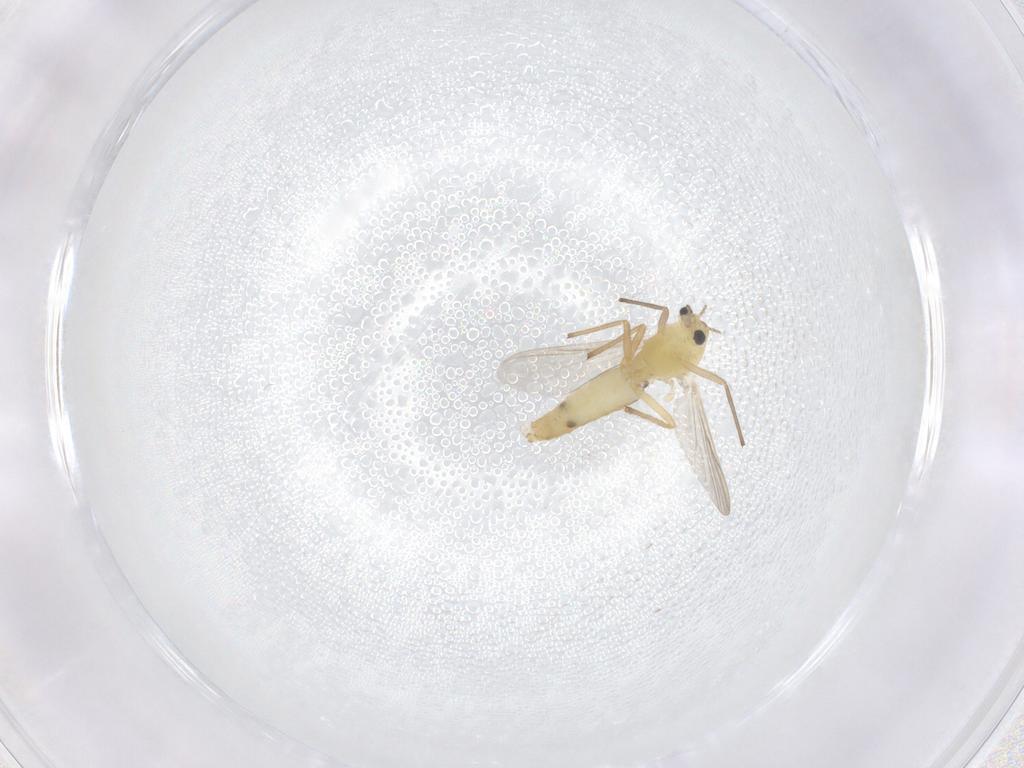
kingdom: Animalia
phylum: Arthropoda
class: Insecta
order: Diptera
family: Chironomidae
